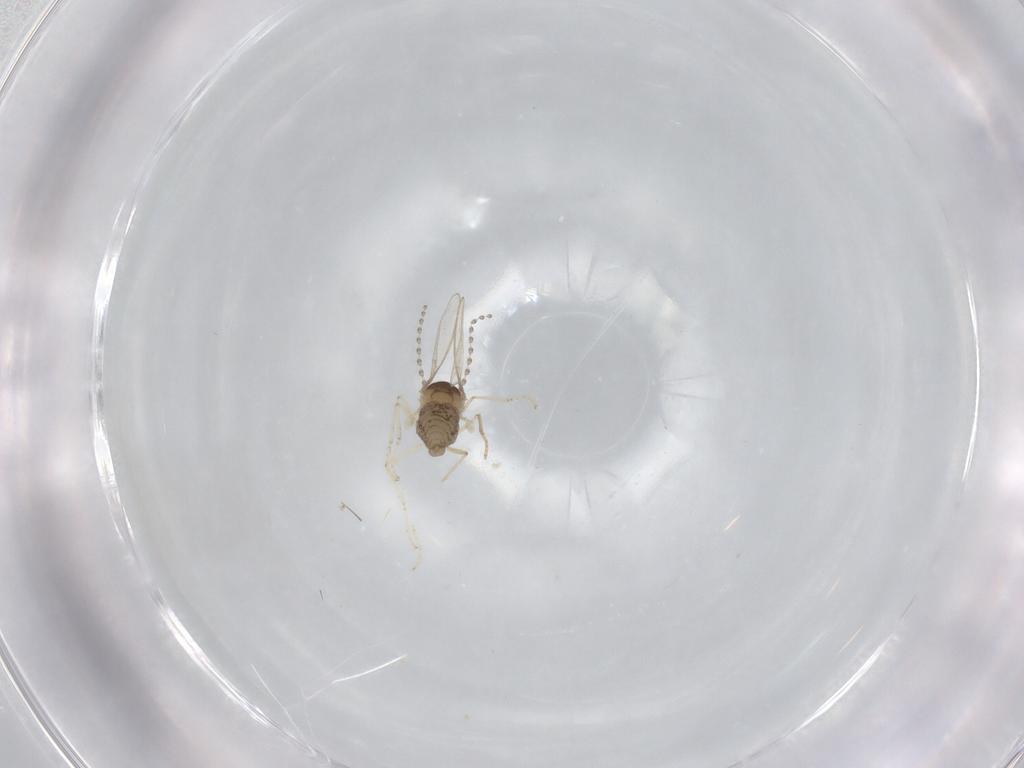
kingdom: Animalia
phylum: Arthropoda
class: Insecta
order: Diptera
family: Cecidomyiidae
